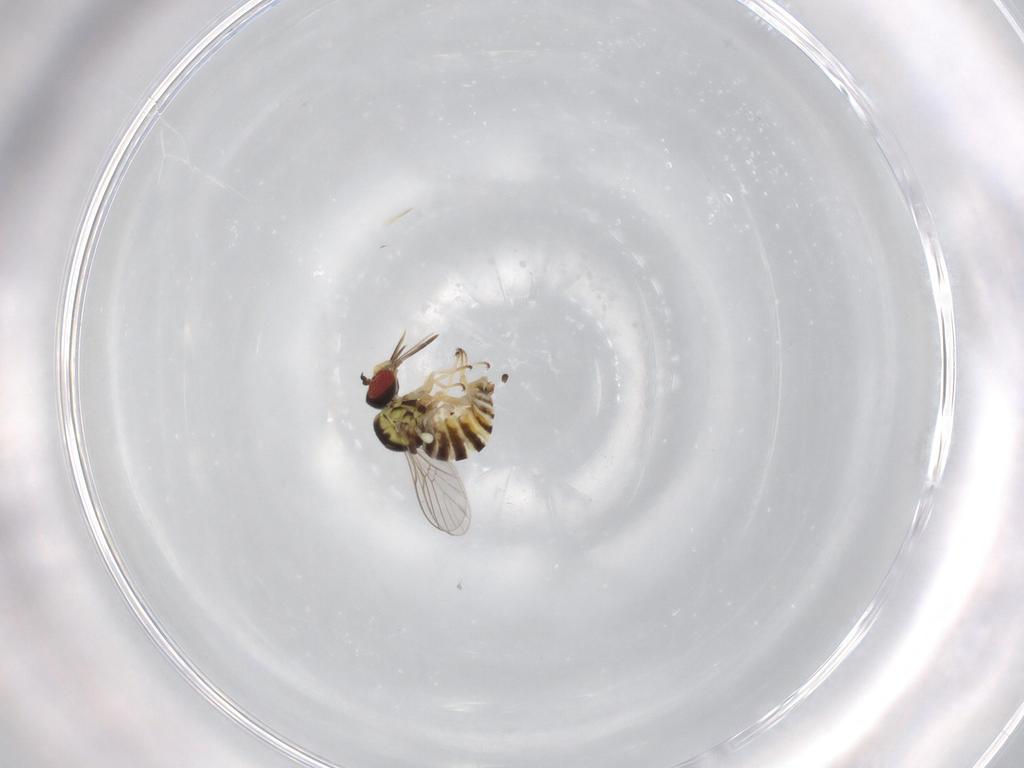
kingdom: Animalia
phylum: Arthropoda
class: Insecta
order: Diptera
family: Bombyliidae
